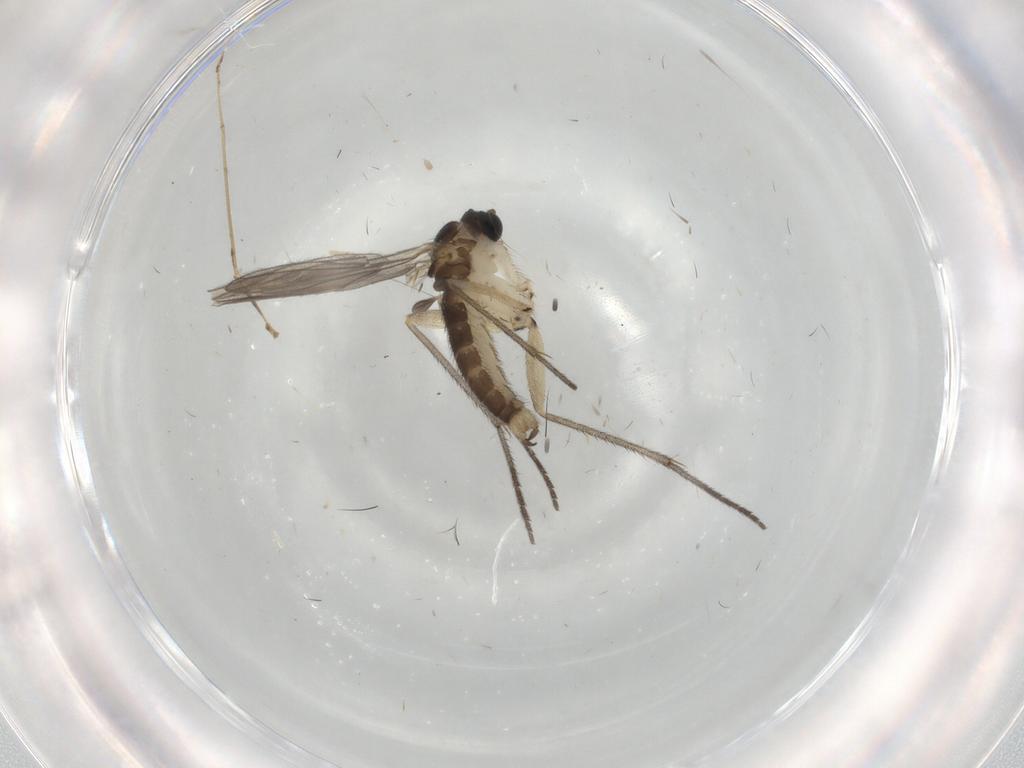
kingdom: Animalia
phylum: Arthropoda
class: Insecta
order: Diptera
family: Sciaridae
